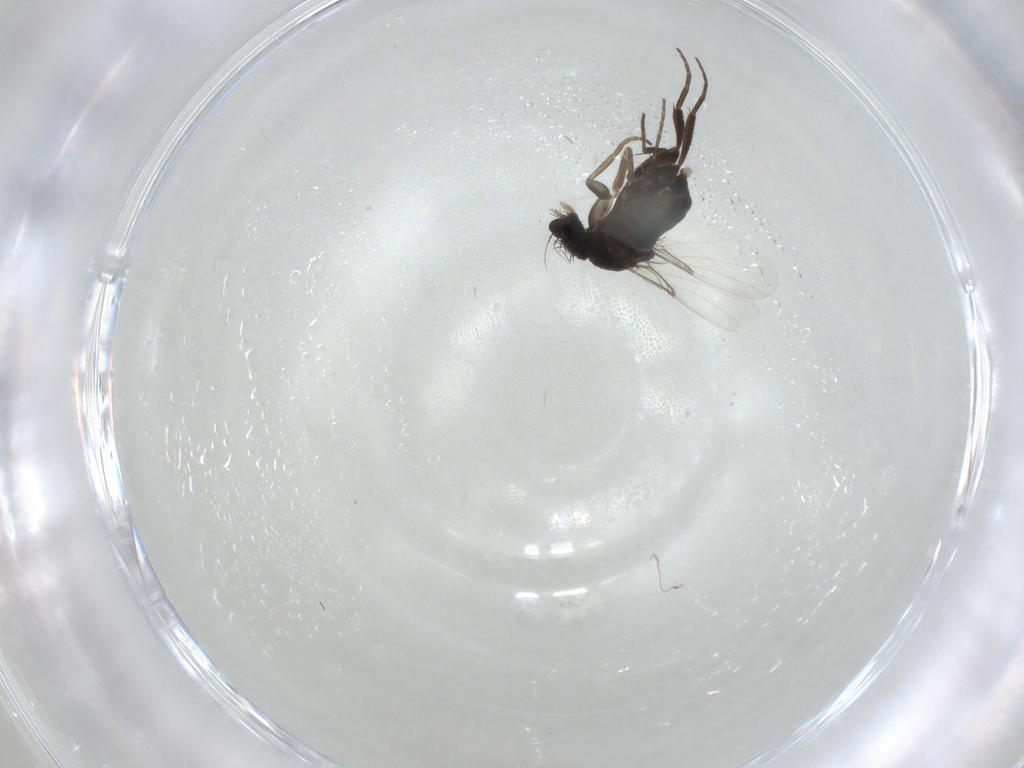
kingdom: Animalia
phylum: Arthropoda
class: Insecta
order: Diptera
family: Phoridae
